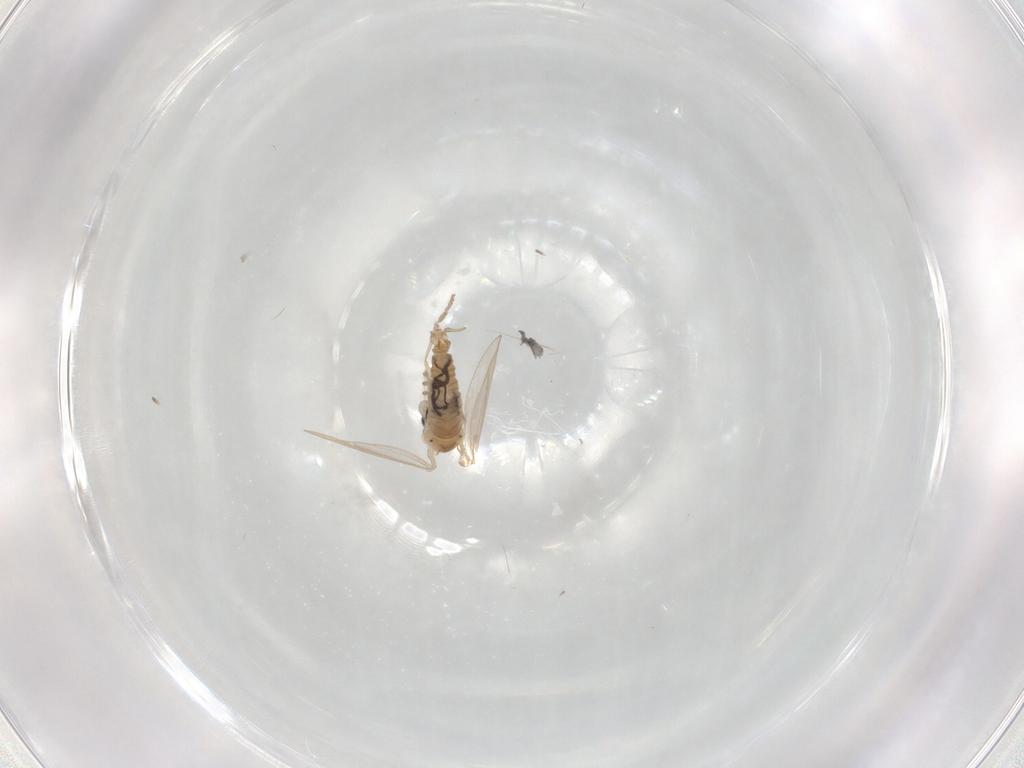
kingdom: Animalia
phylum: Arthropoda
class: Insecta
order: Diptera
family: Psychodidae
